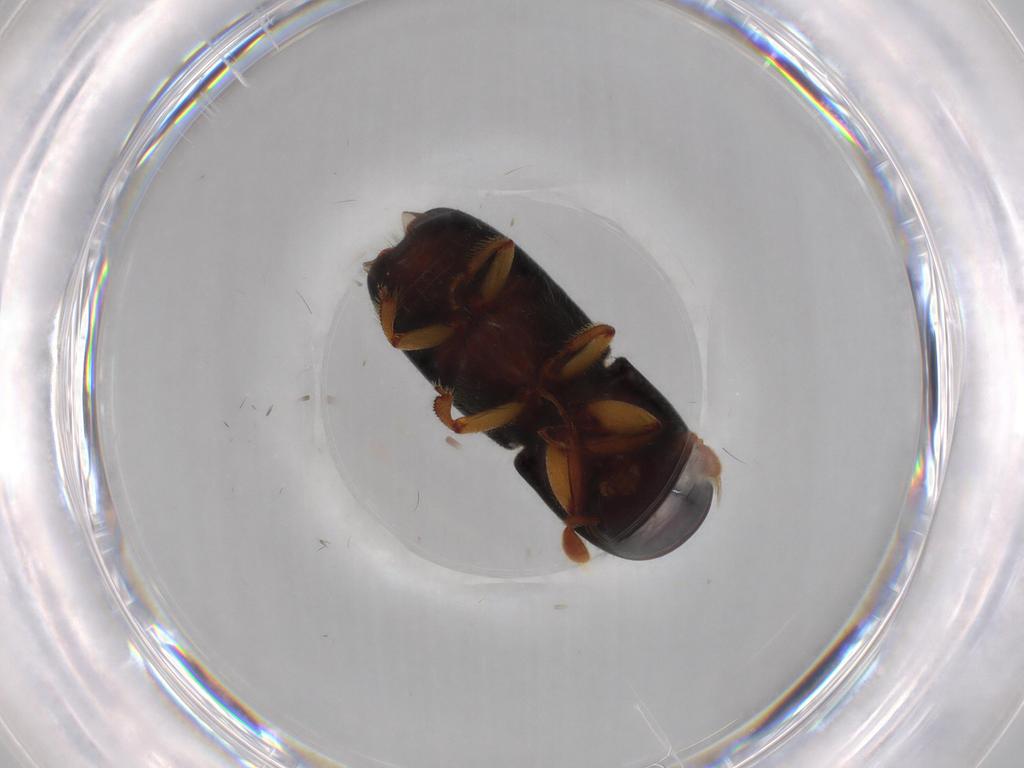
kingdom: Animalia
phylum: Arthropoda
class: Insecta
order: Coleoptera
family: Curculionidae
